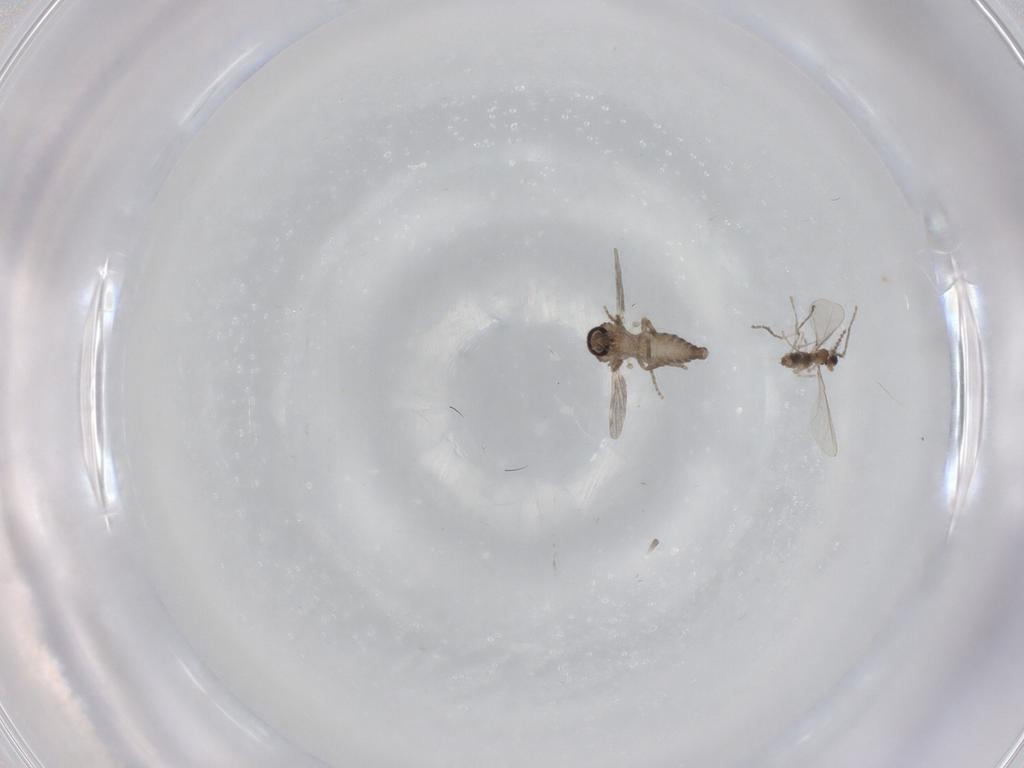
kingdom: Animalia
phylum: Arthropoda
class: Insecta
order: Diptera
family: Ceratopogonidae
